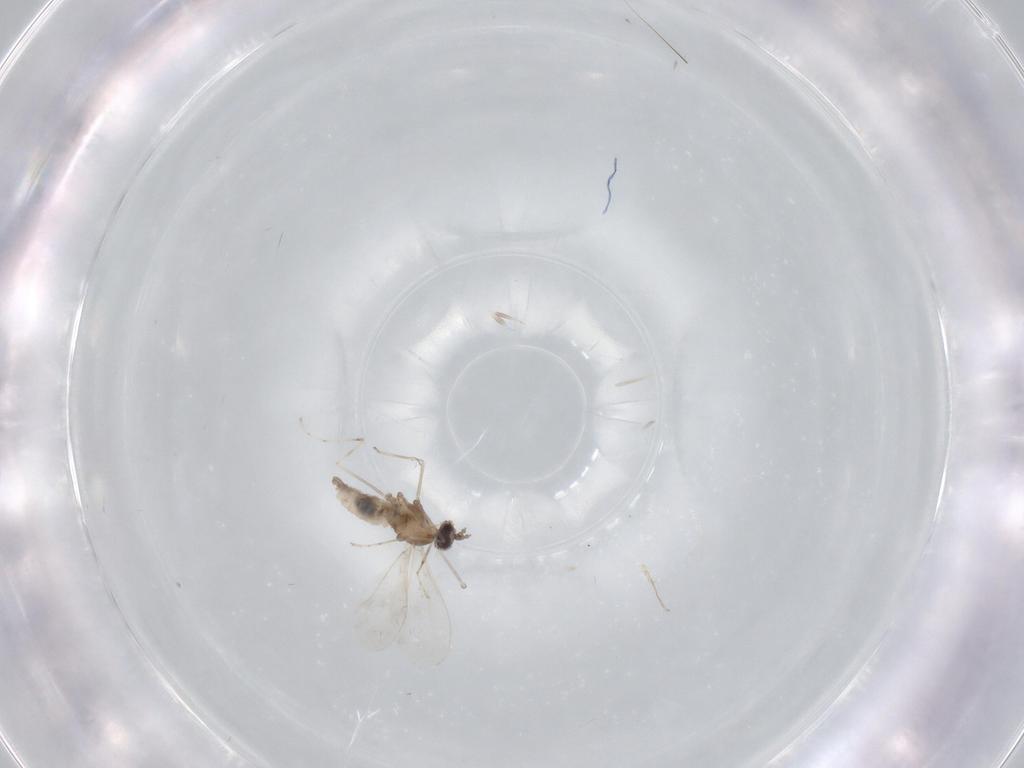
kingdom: Animalia
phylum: Arthropoda
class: Insecta
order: Diptera
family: Cecidomyiidae
